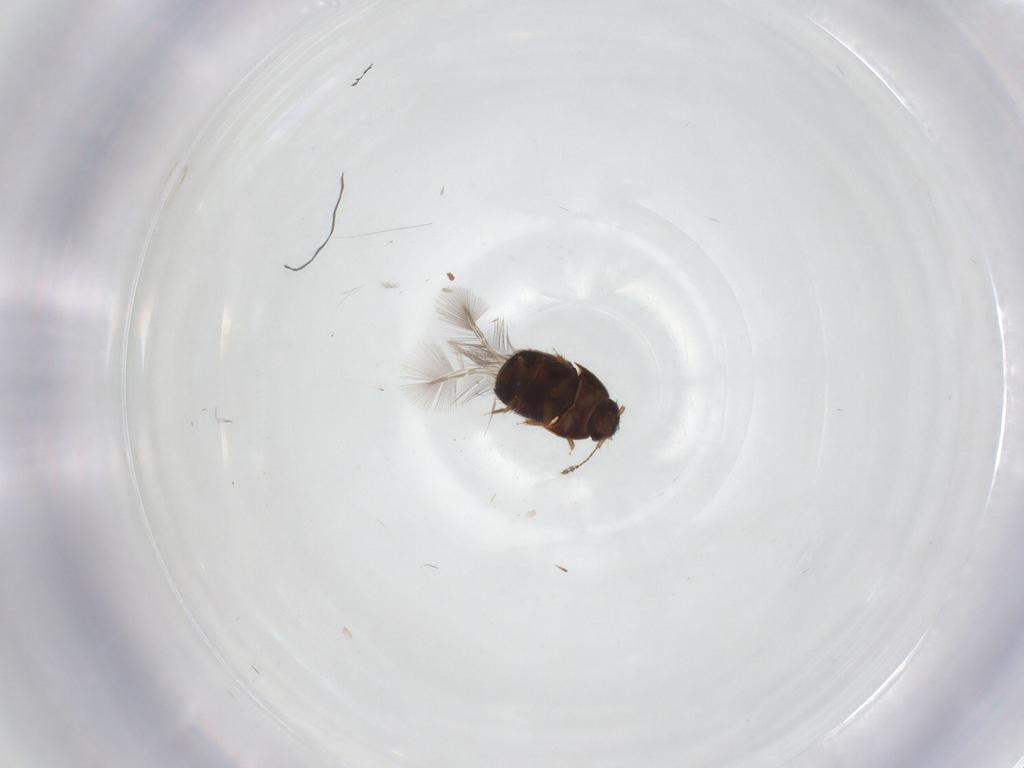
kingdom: Animalia
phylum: Arthropoda
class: Insecta
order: Coleoptera
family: Ptiliidae
